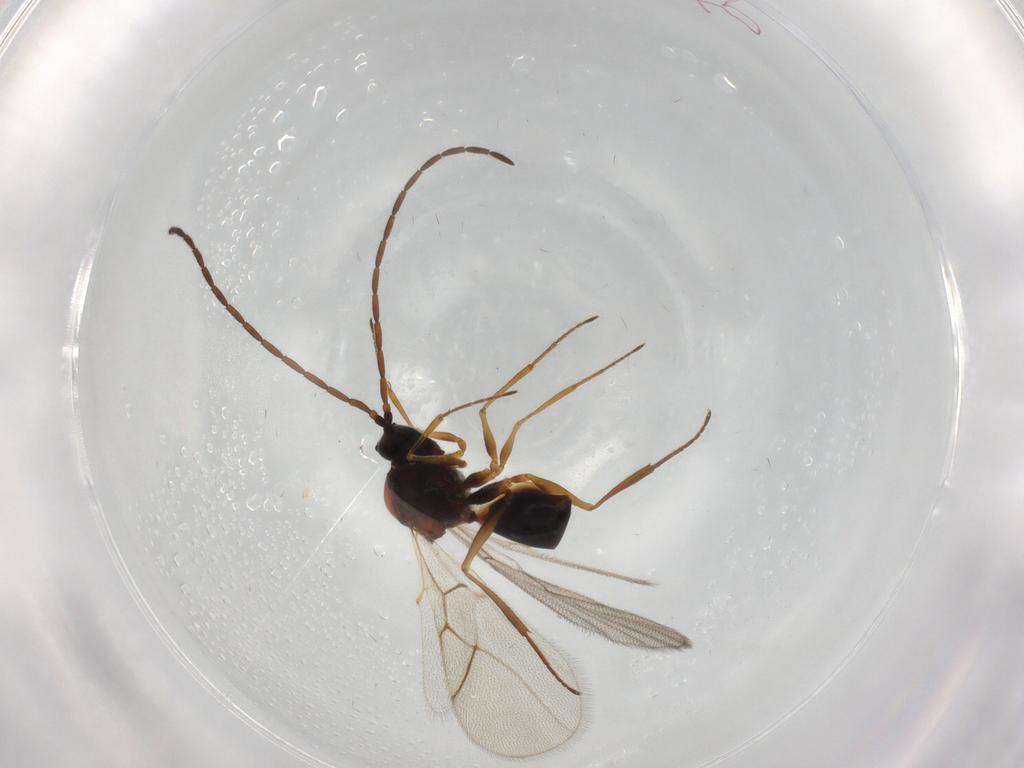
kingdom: Animalia
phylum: Arthropoda
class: Insecta
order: Hymenoptera
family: Figitidae
